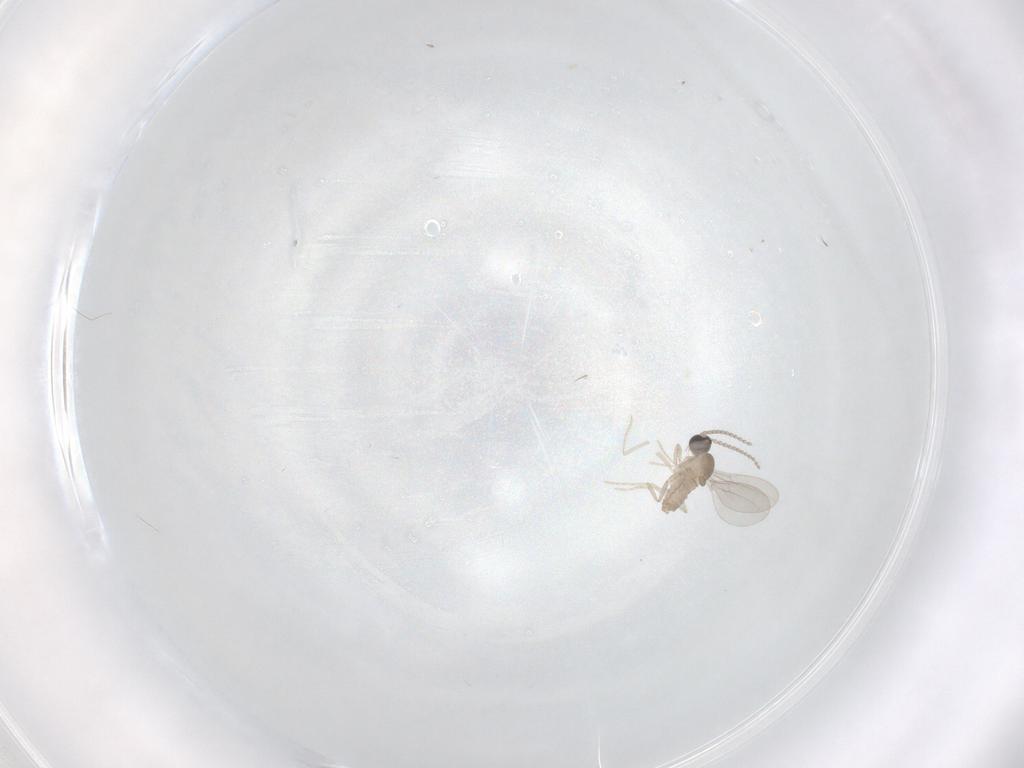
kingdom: Animalia
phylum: Arthropoda
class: Insecta
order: Diptera
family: Cecidomyiidae
